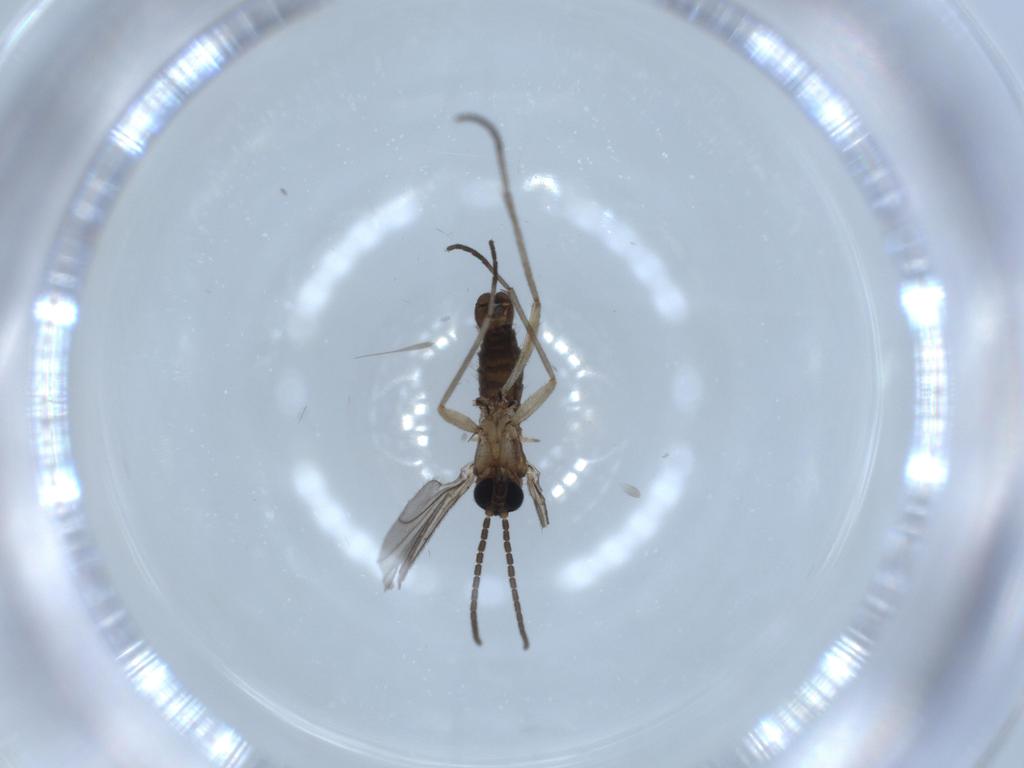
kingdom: Animalia
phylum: Arthropoda
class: Insecta
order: Diptera
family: Sciaridae
